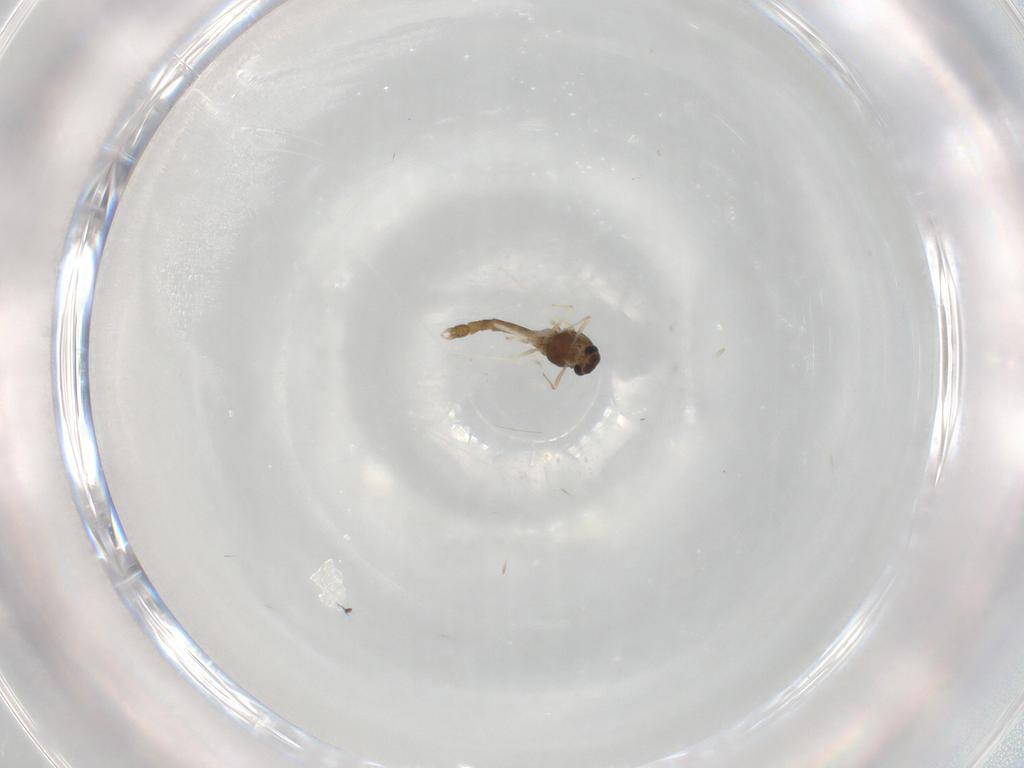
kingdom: Animalia
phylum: Arthropoda
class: Insecta
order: Diptera
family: Chironomidae
